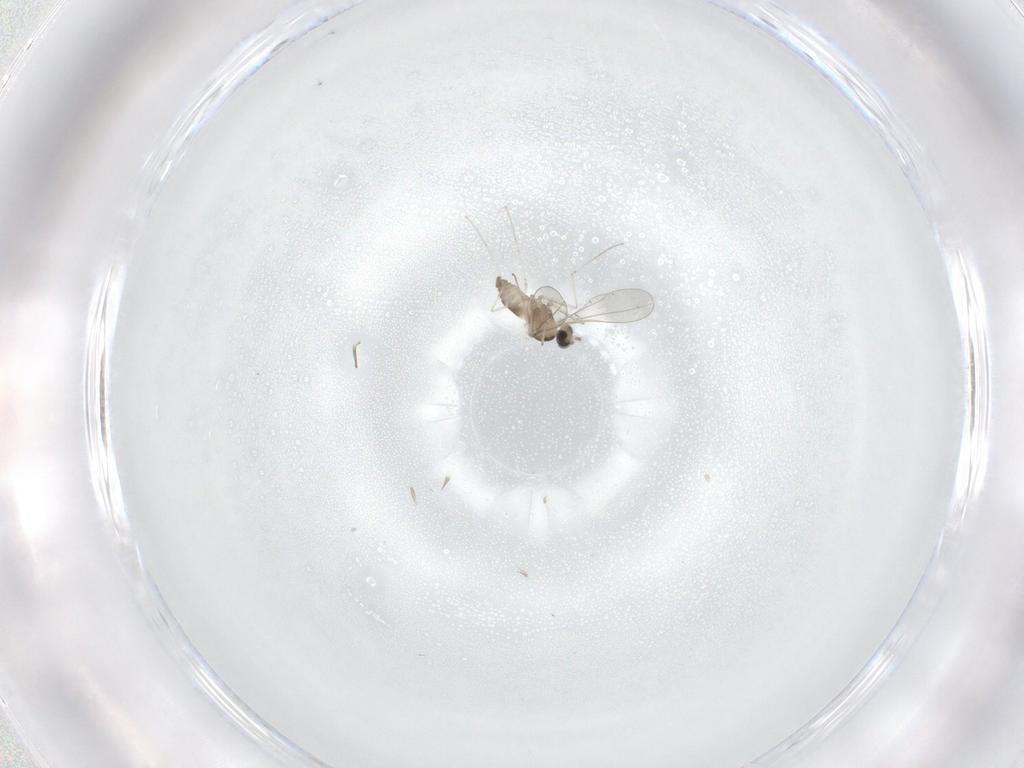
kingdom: Animalia
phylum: Arthropoda
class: Insecta
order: Diptera
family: Cecidomyiidae
